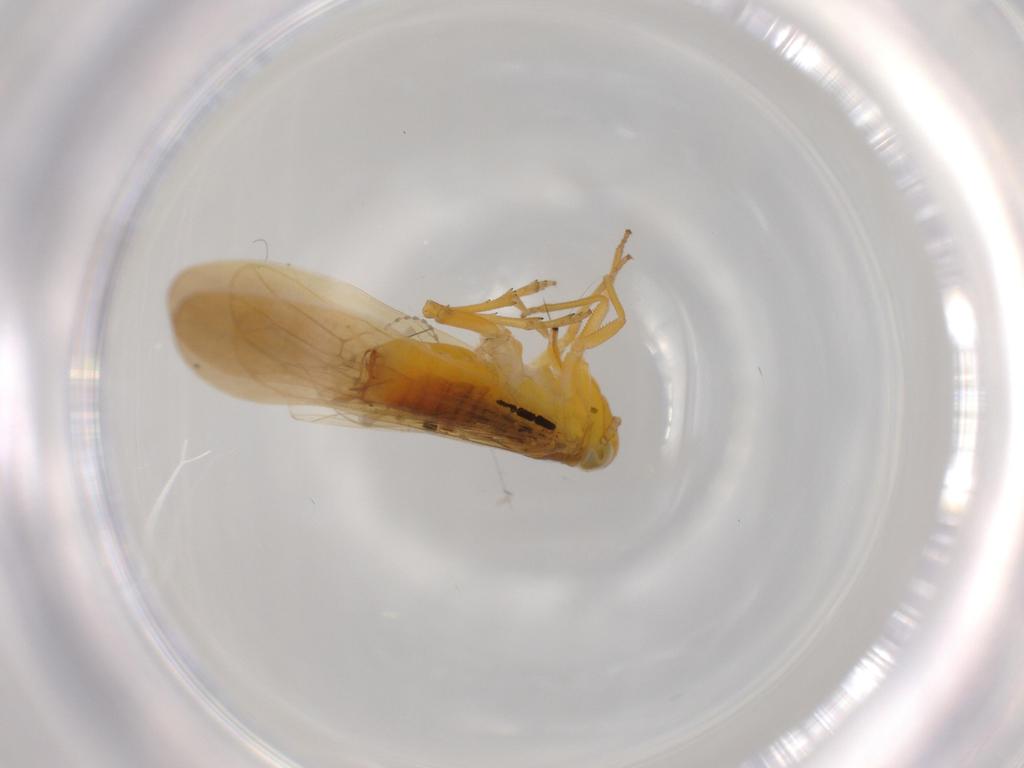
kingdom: Animalia
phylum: Arthropoda
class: Insecta
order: Hemiptera
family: Delphacidae
